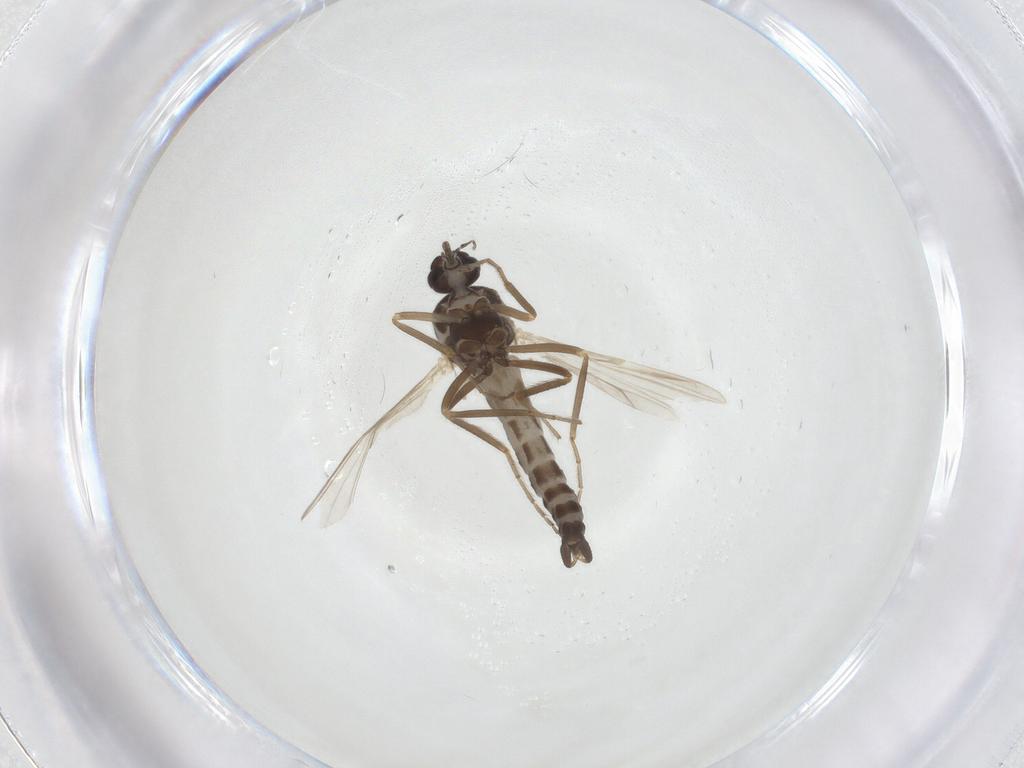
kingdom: Animalia
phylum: Arthropoda
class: Insecta
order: Diptera
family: Ceratopogonidae
